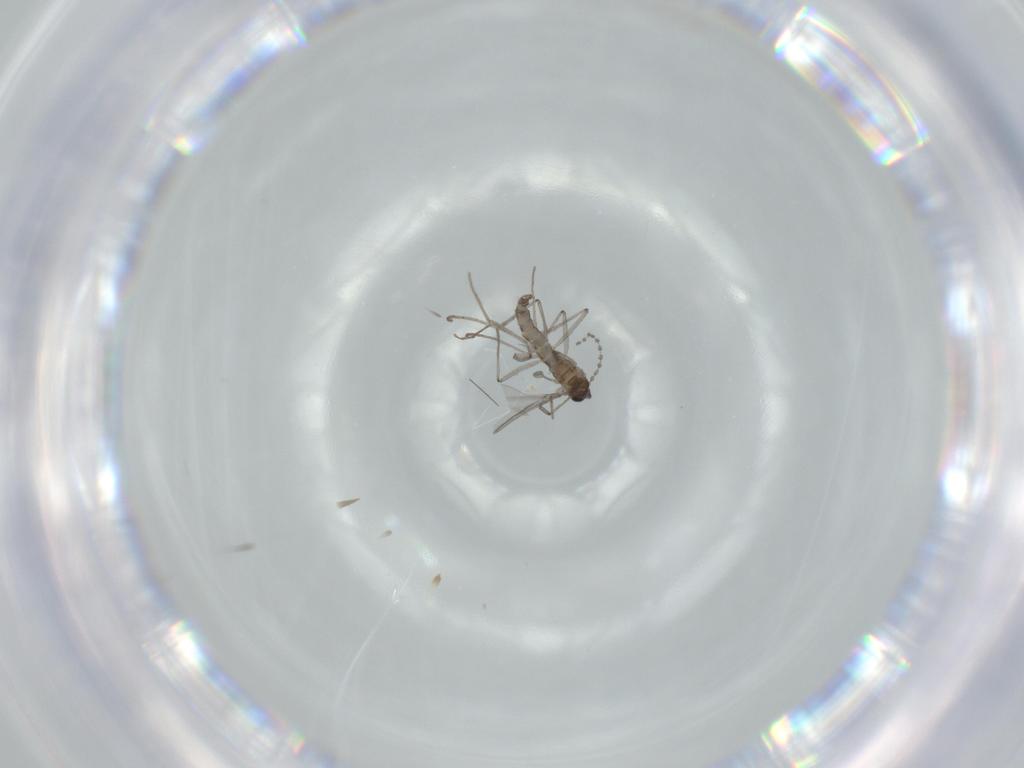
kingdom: Animalia
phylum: Arthropoda
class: Insecta
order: Diptera
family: Cecidomyiidae
